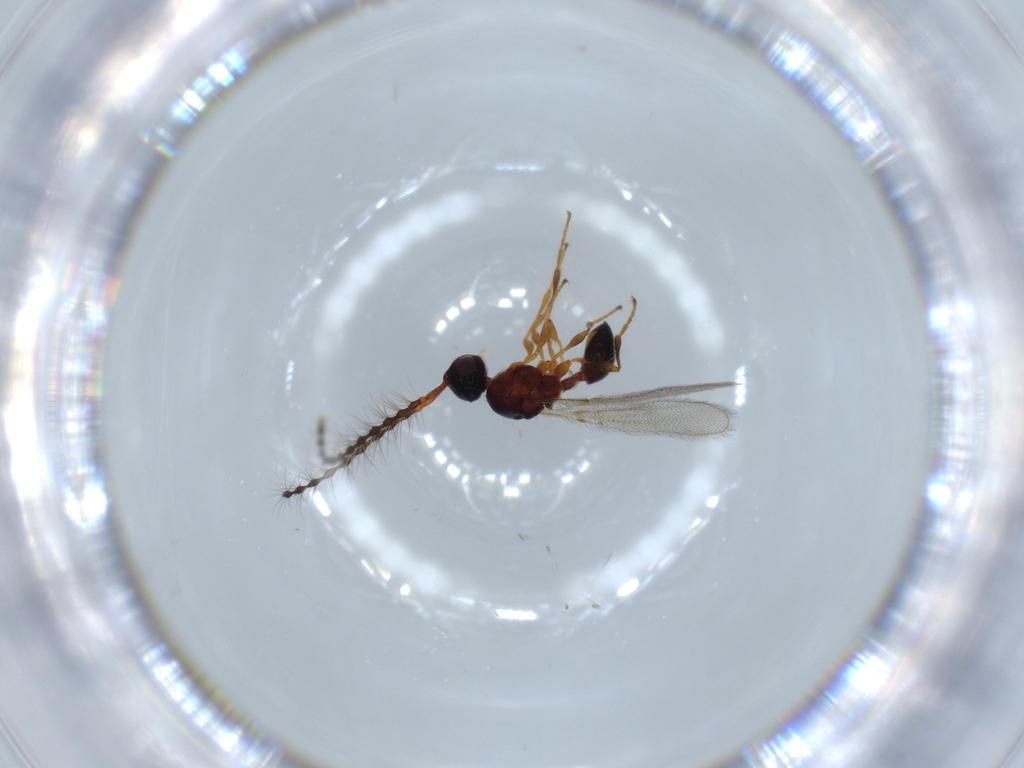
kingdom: Animalia
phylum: Arthropoda
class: Insecta
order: Hymenoptera
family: Diapriidae
